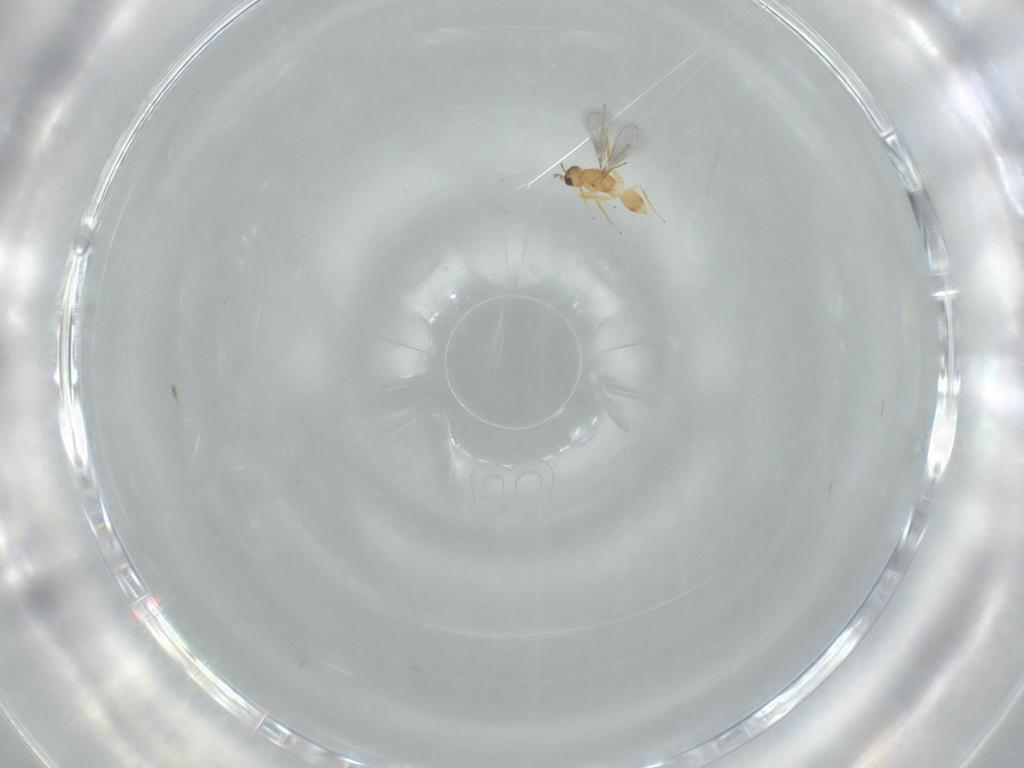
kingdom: Animalia
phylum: Arthropoda
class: Insecta
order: Hymenoptera
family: Mymaridae
